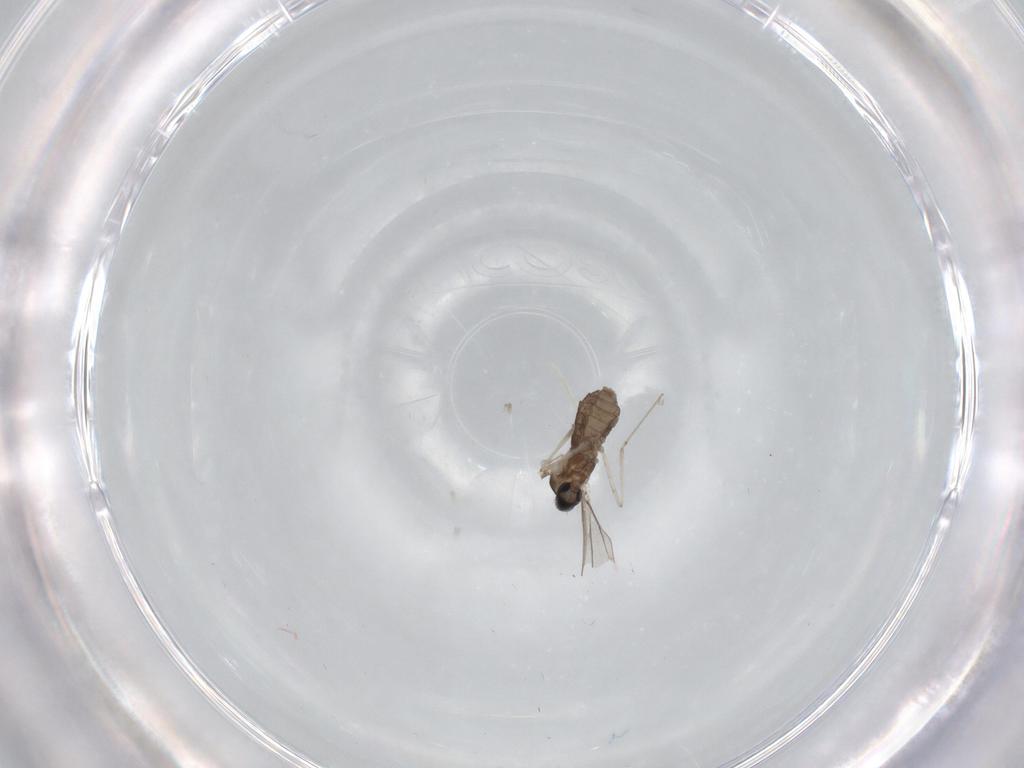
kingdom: Animalia
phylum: Arthropoda
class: Insecta
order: Diptera
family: Cecidomyiidae
